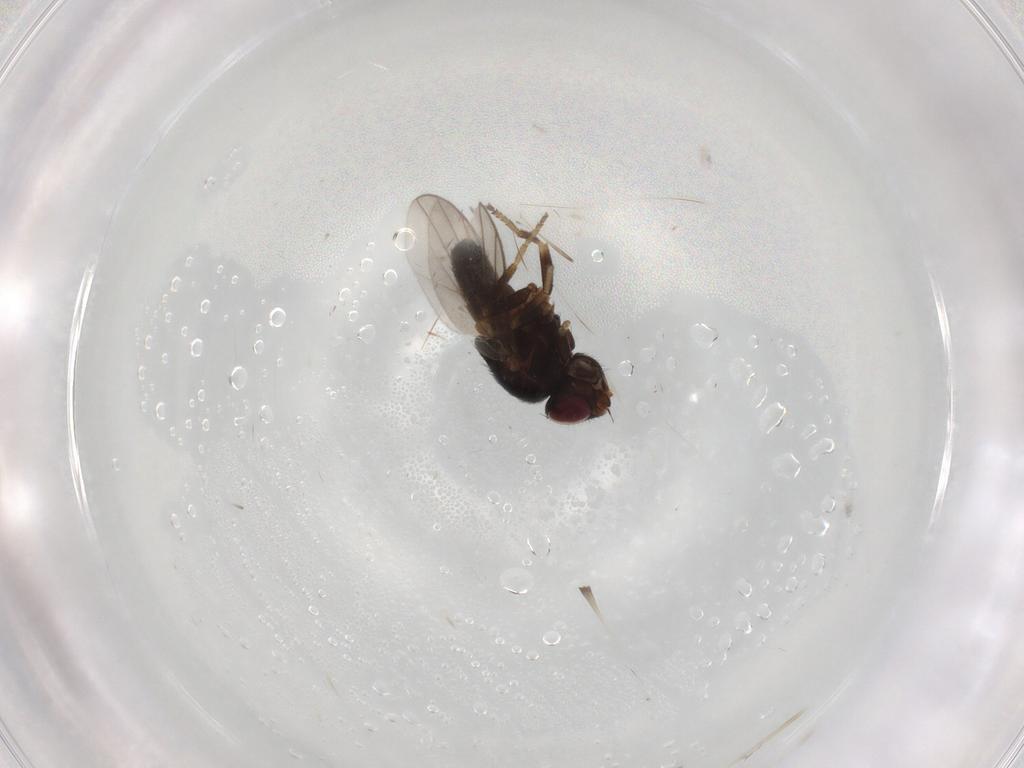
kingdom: Animalia
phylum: Arthropoda
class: Insecta
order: Diptera
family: Chloropidae
